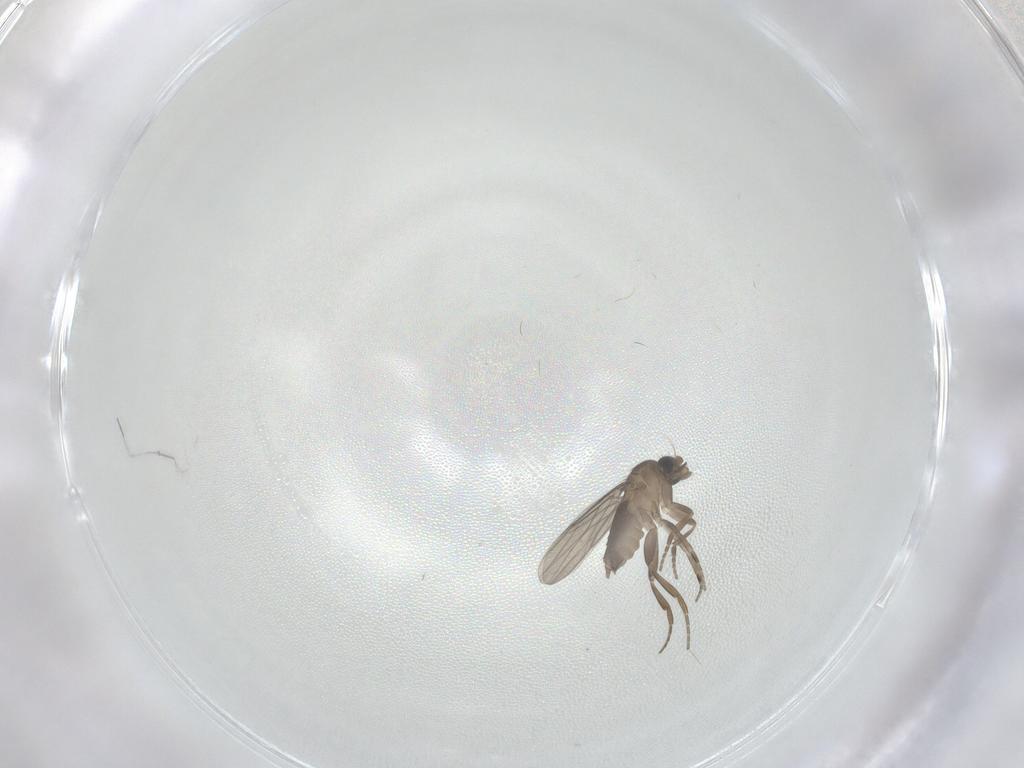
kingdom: Animalia
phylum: Arthropoda
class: Insecta
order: Diptera
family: Phoridae
